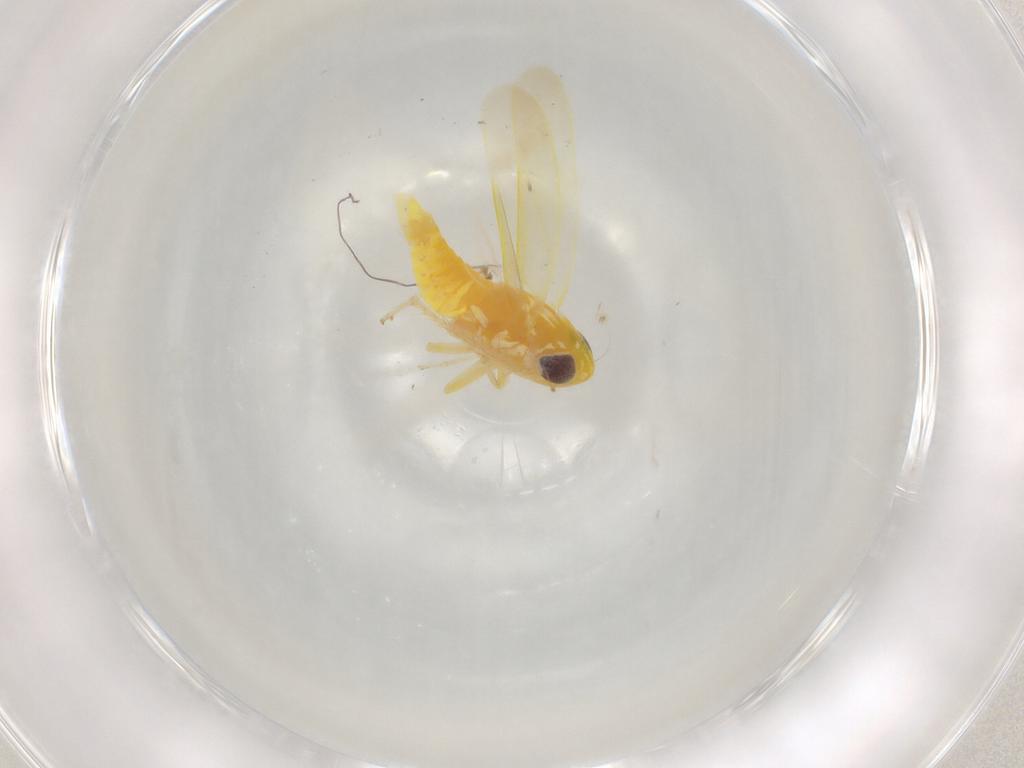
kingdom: Animalia
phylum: Arthropoda
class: Insecta
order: Hemiptera
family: Cicadellidae
